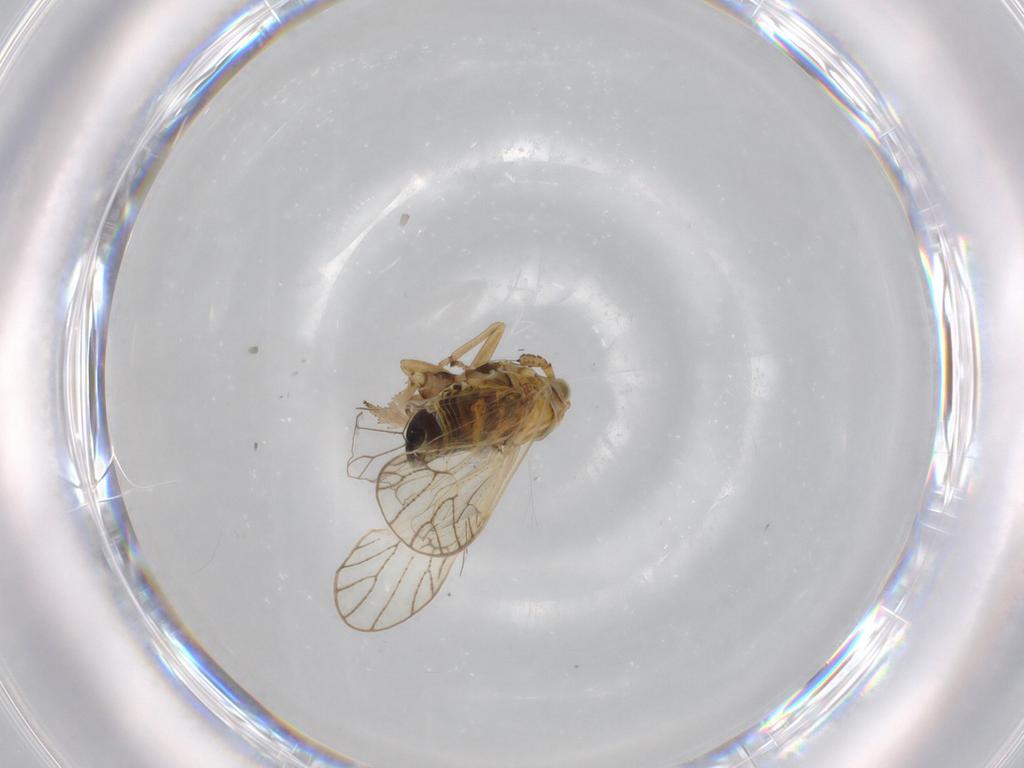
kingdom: Animalia
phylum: Arthropoda
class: Insecta
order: Hemiptera
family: Delphacidae
